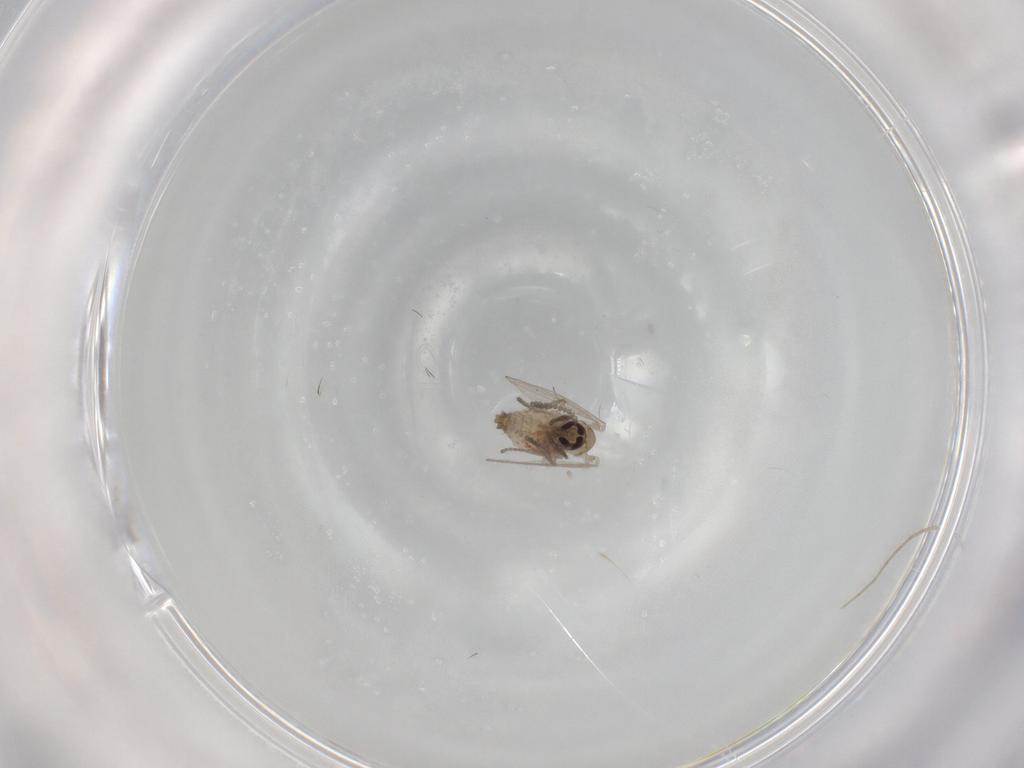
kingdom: Animalia
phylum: Arthropoda
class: Insecta
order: Diptera
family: Psychodidae
